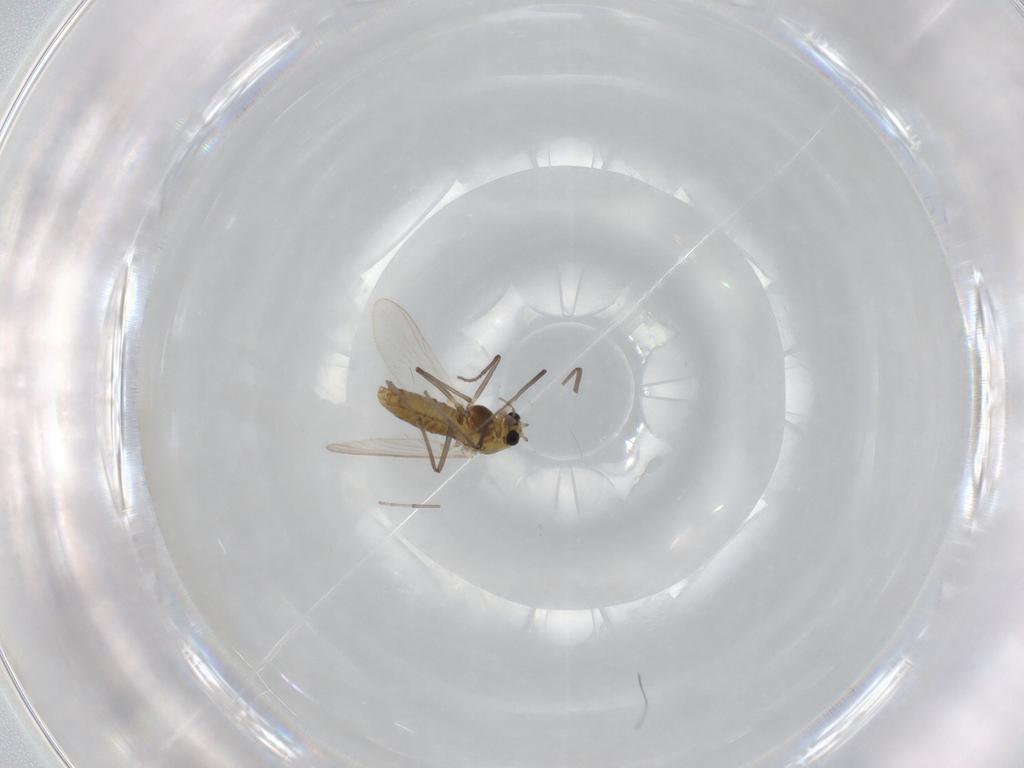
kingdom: Animalia
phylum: Arthropoda
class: Insecta
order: Diptera
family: Chironomidae
